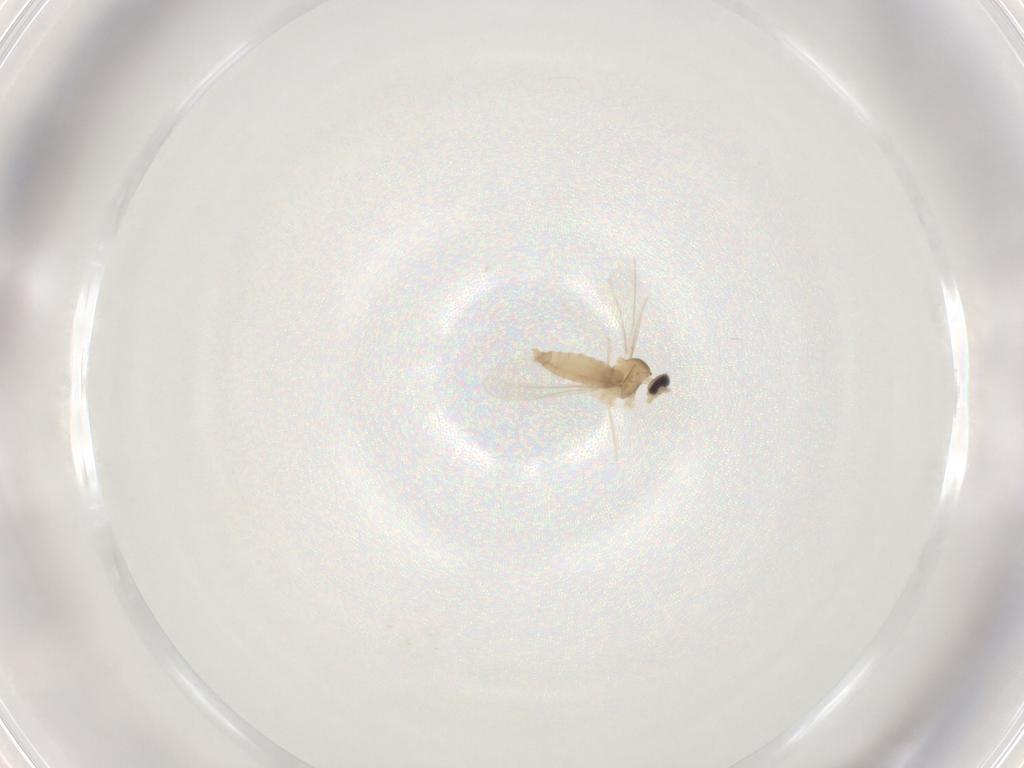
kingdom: Animalia
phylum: Arthropoda
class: Insecta
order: Diptera
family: Cecidomyiidae
